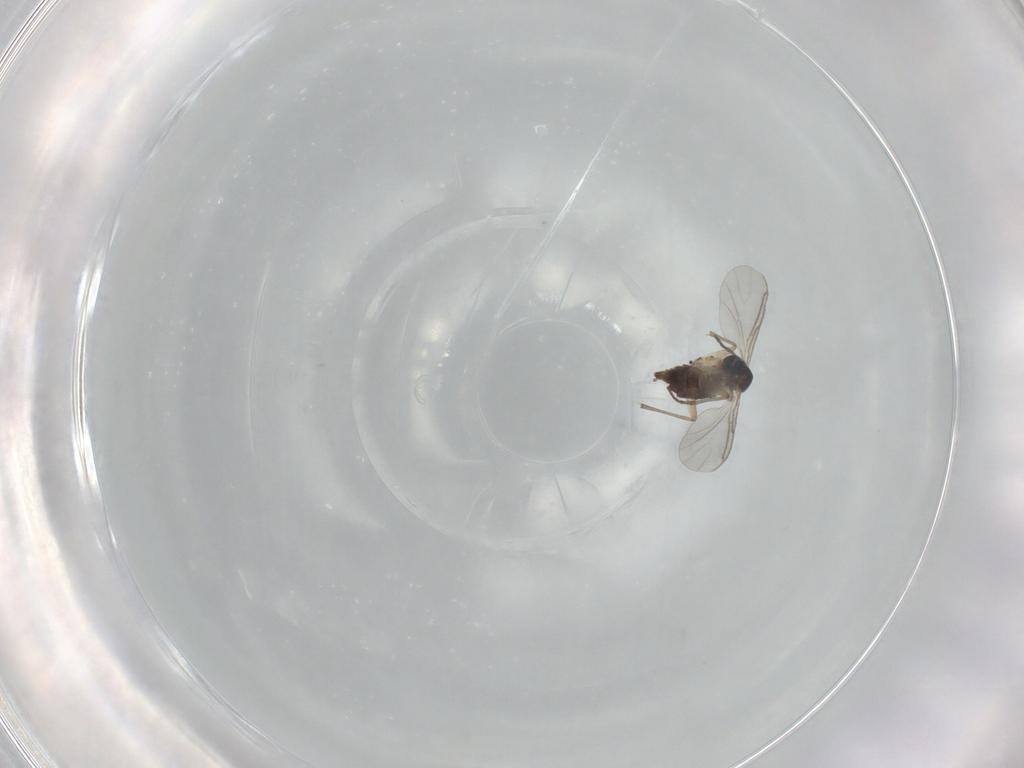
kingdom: Animalia
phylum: Arthropoda
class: Insecta
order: Diptera
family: Sciaridae
